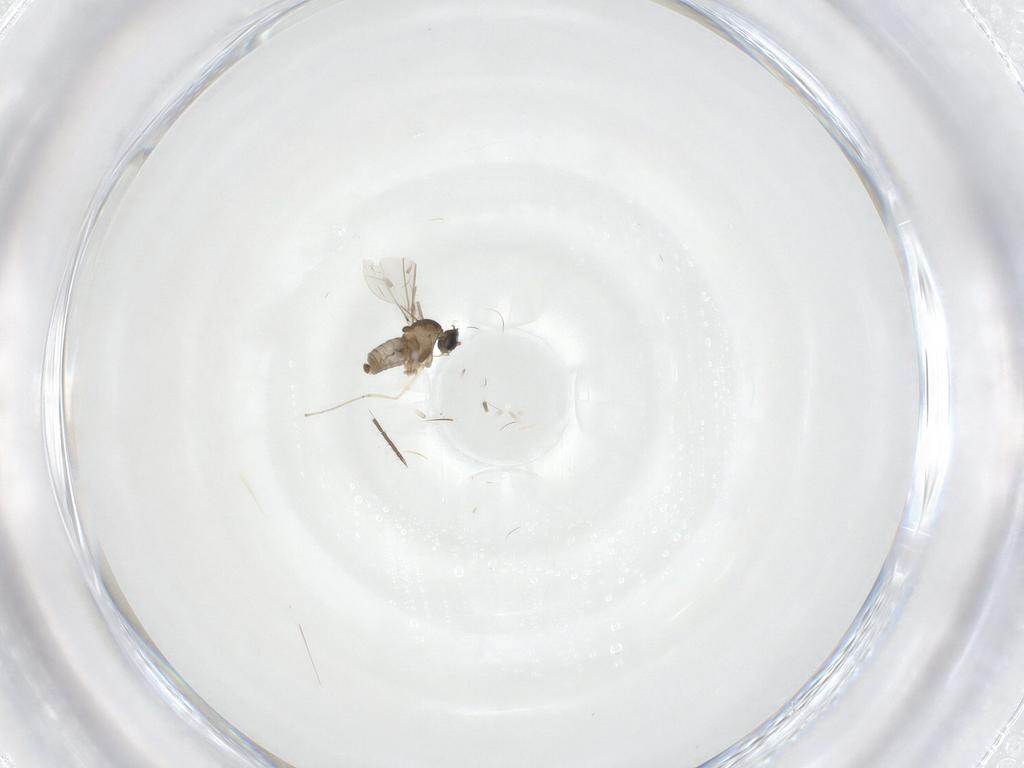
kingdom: Animalia
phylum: Arthropoda
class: Insecta
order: Diptera
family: Cecidomyiidae
